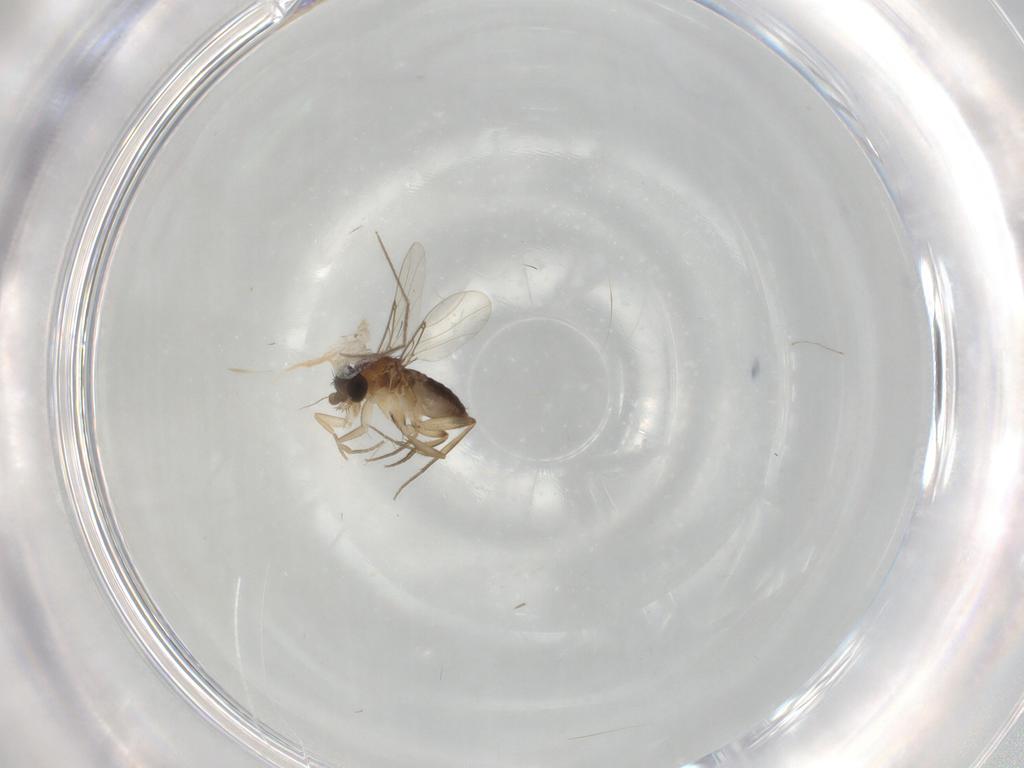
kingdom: Animalia
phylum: Arthropoda
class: Insecta
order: Diptera
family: Chironomidae
